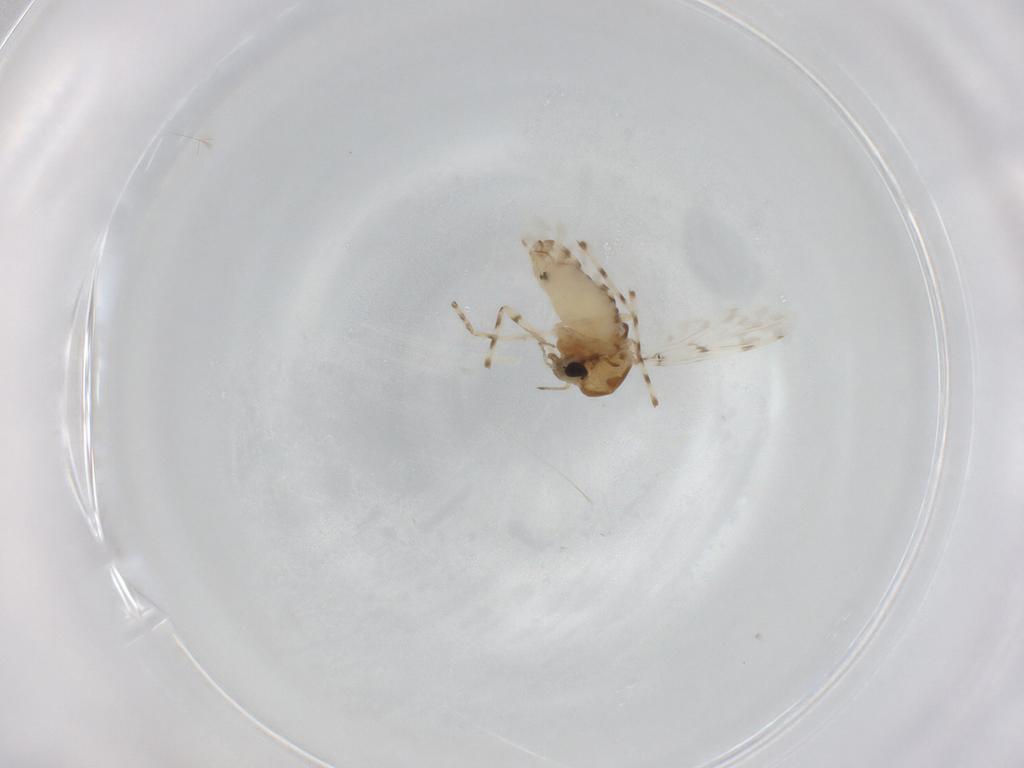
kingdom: Animalia
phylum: Arthropoda
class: Insecta
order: Diptera
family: Chironomidae
